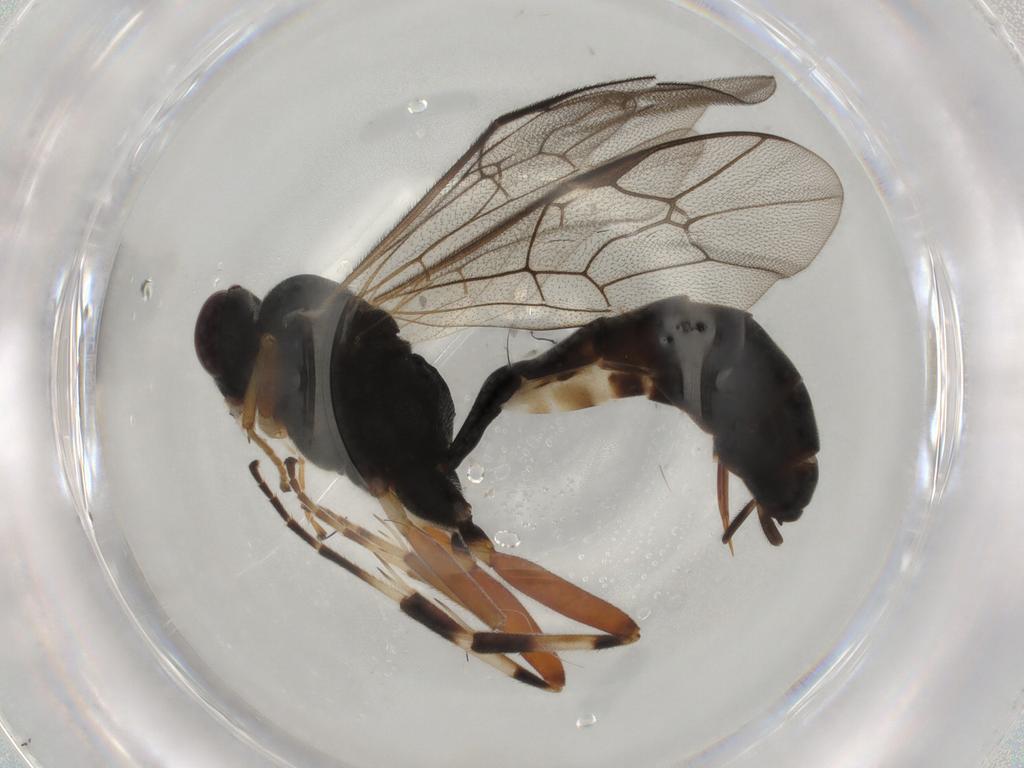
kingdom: Animalia
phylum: Arthropoda
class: Insecta
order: Hymenoptera
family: Ichneumonidae
